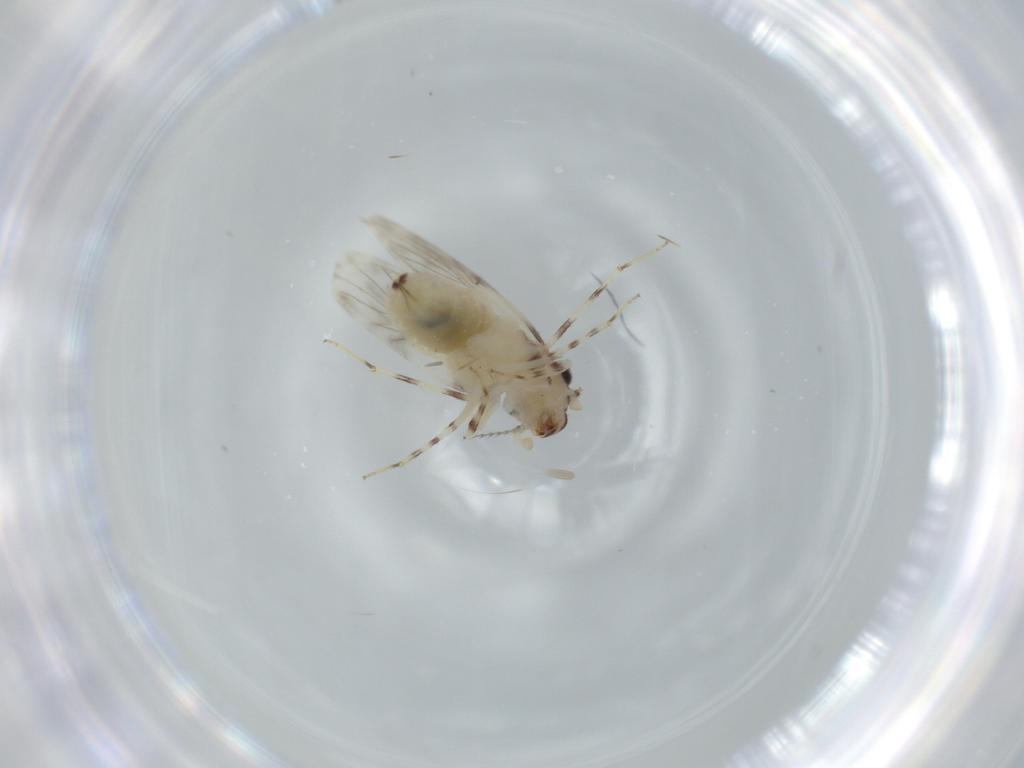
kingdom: Animalia
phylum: Arthropoda
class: Insecta
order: Psocodea
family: Lepidopsocidae
